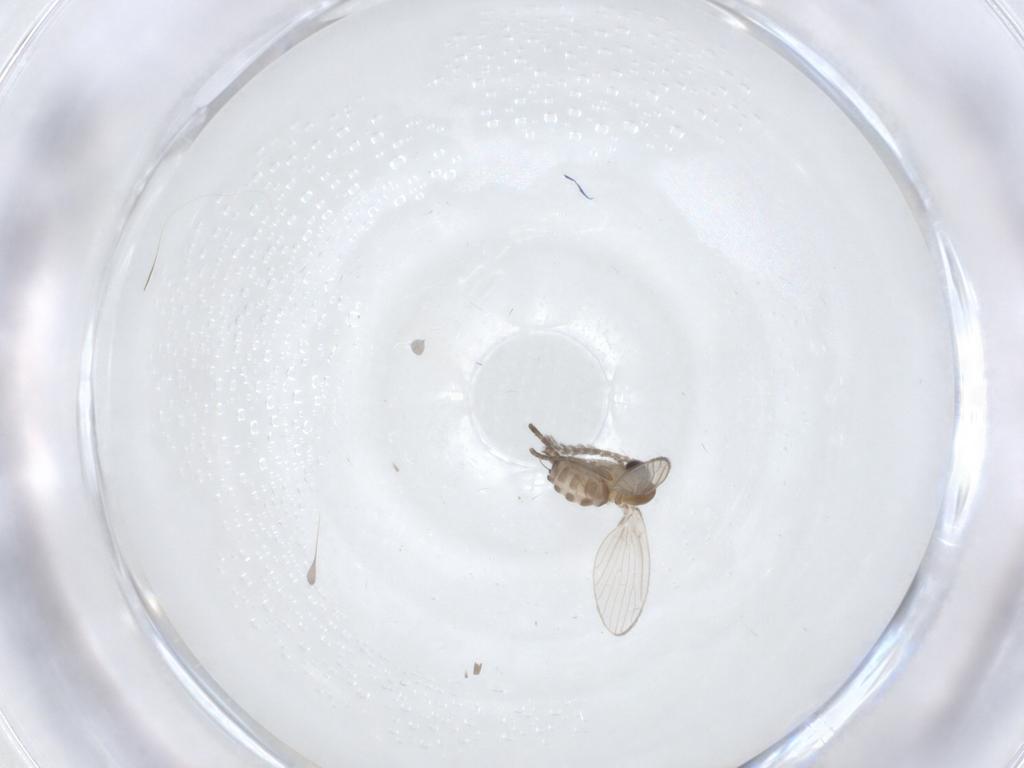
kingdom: Animalia
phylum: Arthropoda
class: Insecta
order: Diptera
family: Psychodidae
